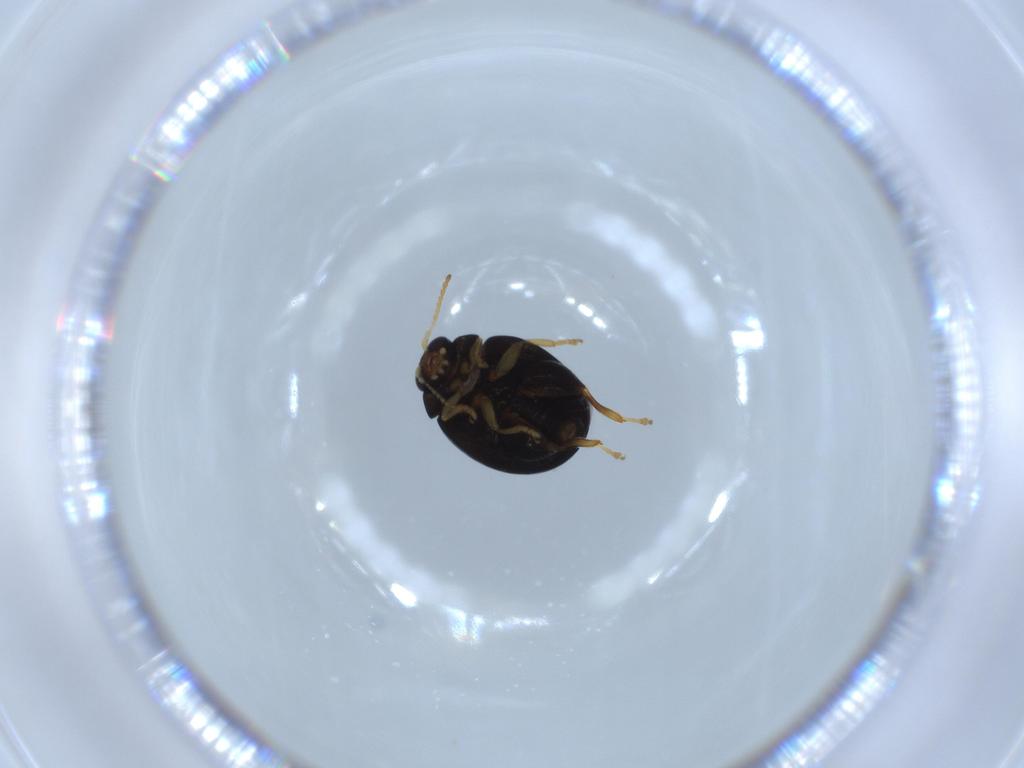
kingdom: Animalia
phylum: Arthropoda
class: Insecta
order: Coleoptera
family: Chrysomelidae
